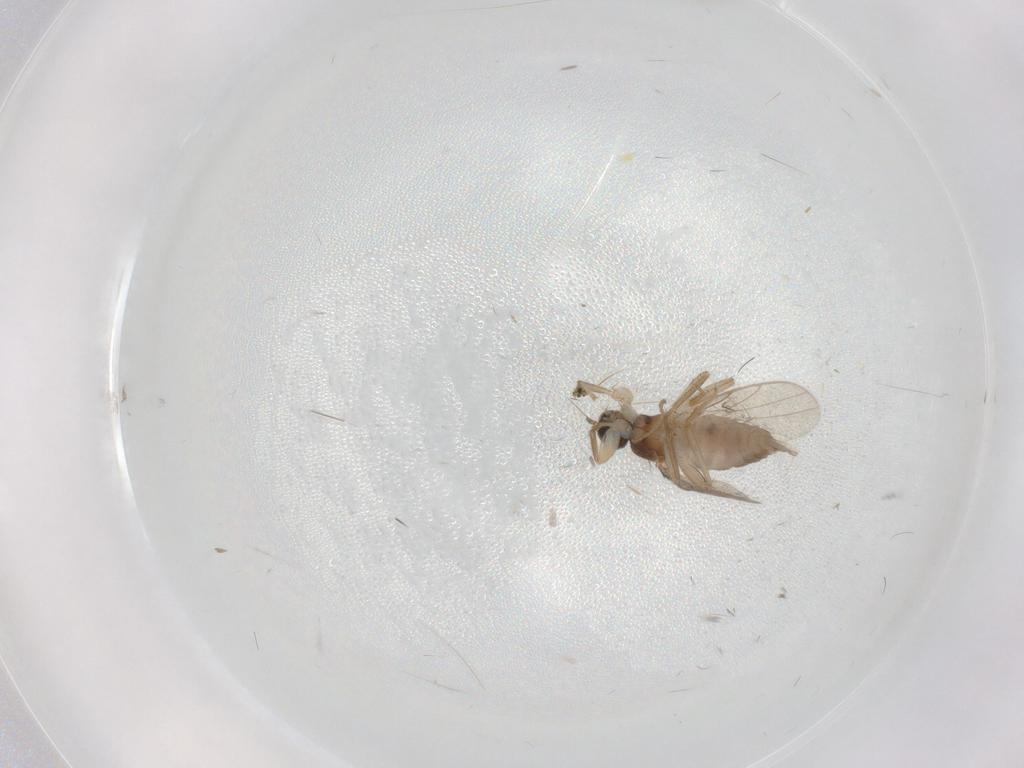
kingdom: Animalia
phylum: Arthropoda
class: Insecta
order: Diptera
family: Hybotidae
